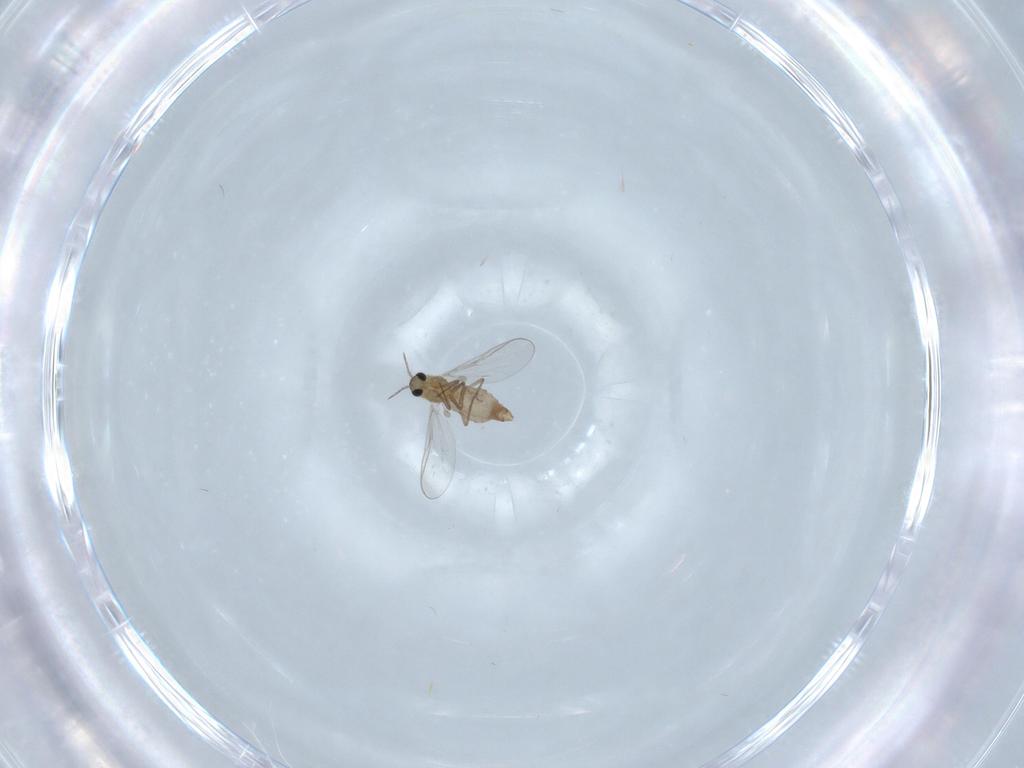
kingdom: Animalia
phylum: Arthropoda
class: Insecta
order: Diptera
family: Chironomidae
